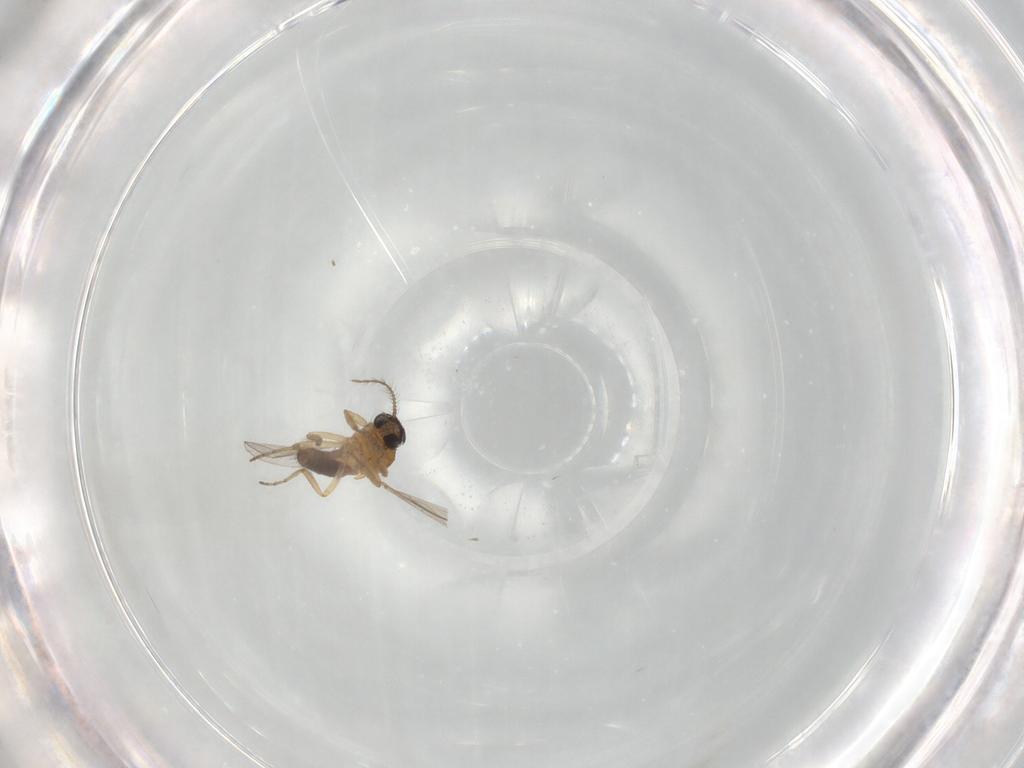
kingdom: Animalia
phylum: Arthropoda
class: Insecta
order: Diptera
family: Ceratopogonidae
